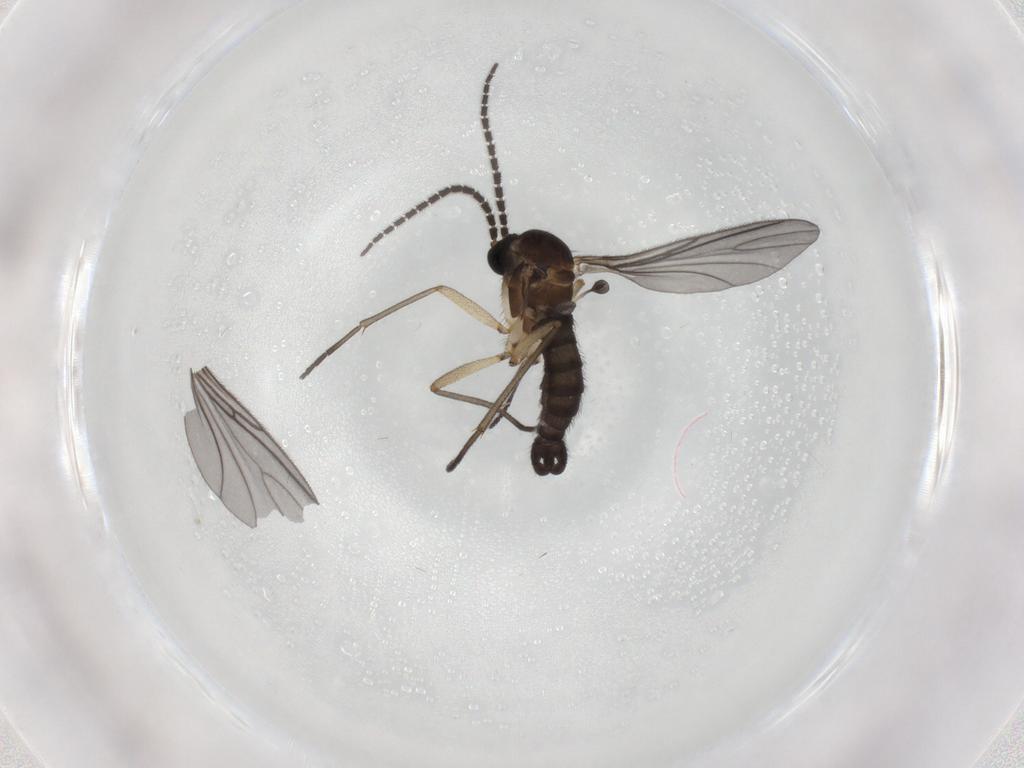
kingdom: Animalia
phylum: Arthropoda
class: Insecta
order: Diptera
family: Sciaridae
